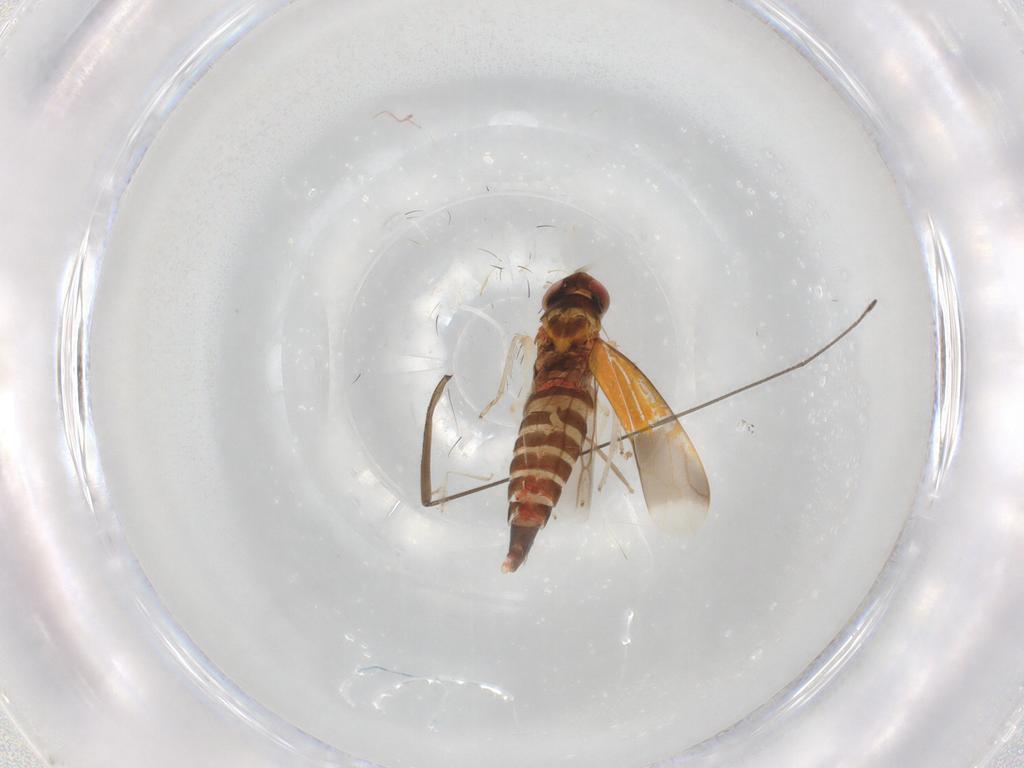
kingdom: Animalia
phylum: Arthropoda
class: Insecta
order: Hemiptera
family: Cicadellidae
